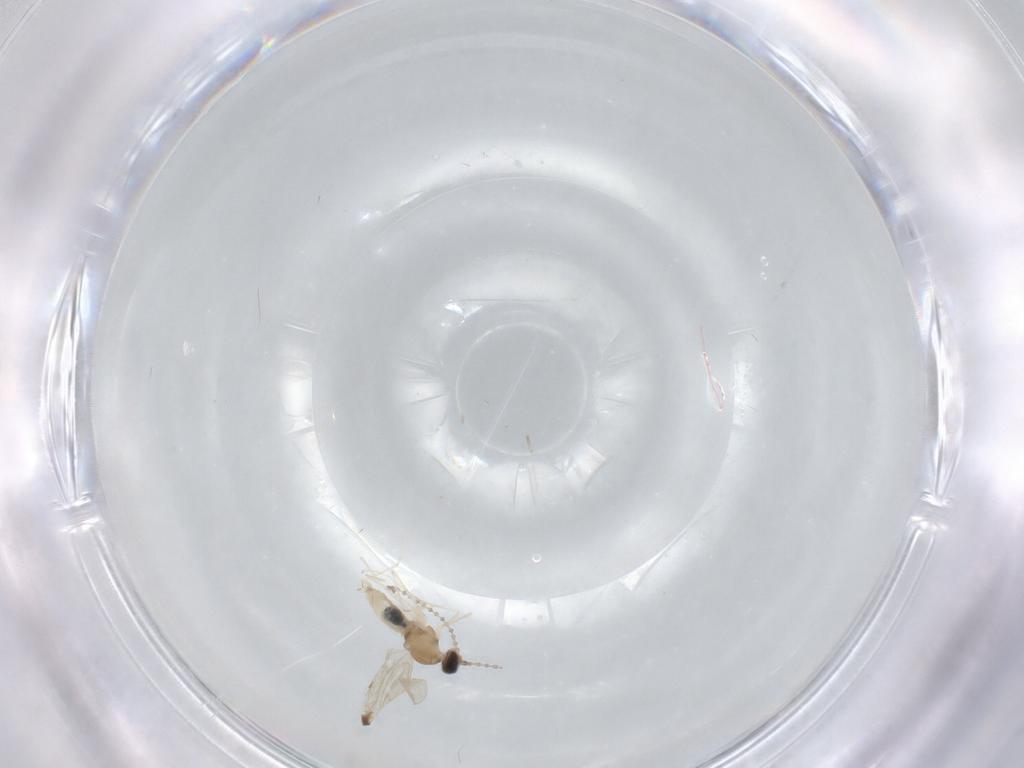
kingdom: Animalia
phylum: Arthropoda
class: Insecta
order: Diptera
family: Cecidomyiidae
